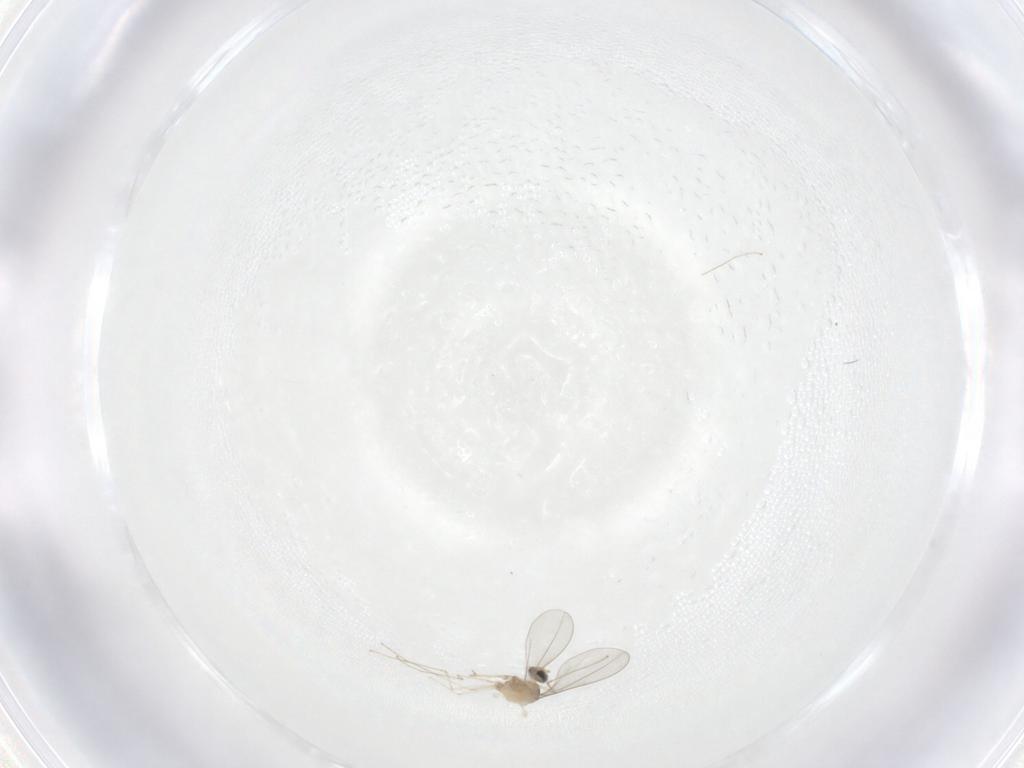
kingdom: Animalia
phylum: Arthropoda
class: Insecta
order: Diptera
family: Cecidomyiidae
